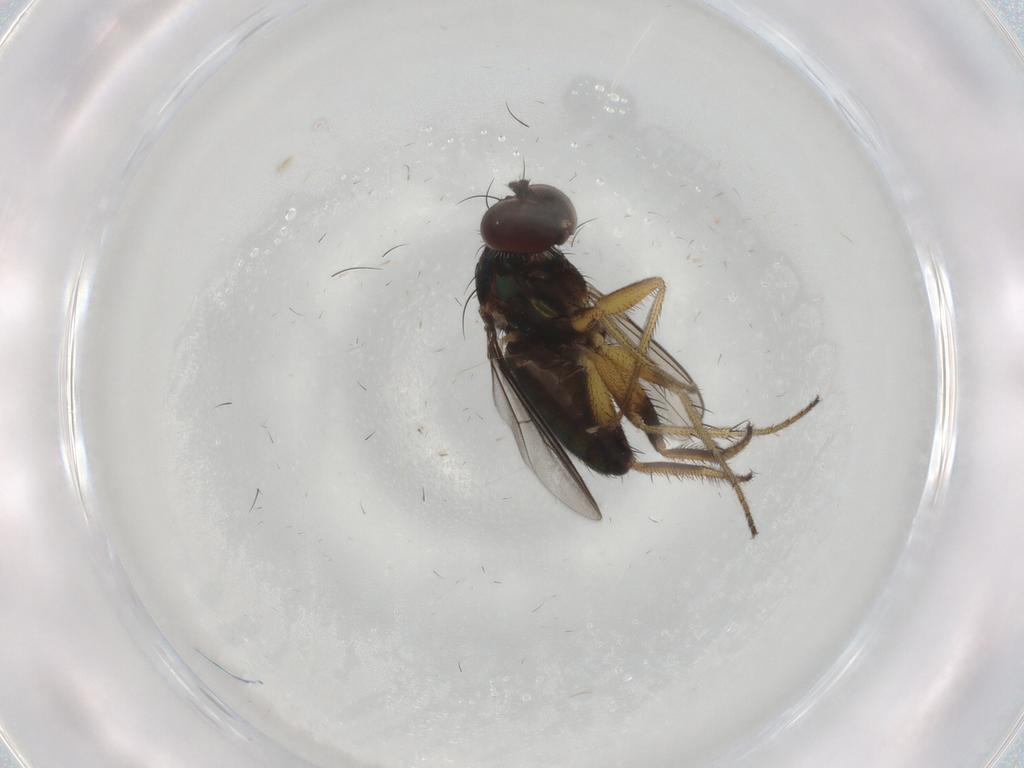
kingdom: Animalia
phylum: Arthropoda
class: Insecta
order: Diptera
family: Dolichopodidae
